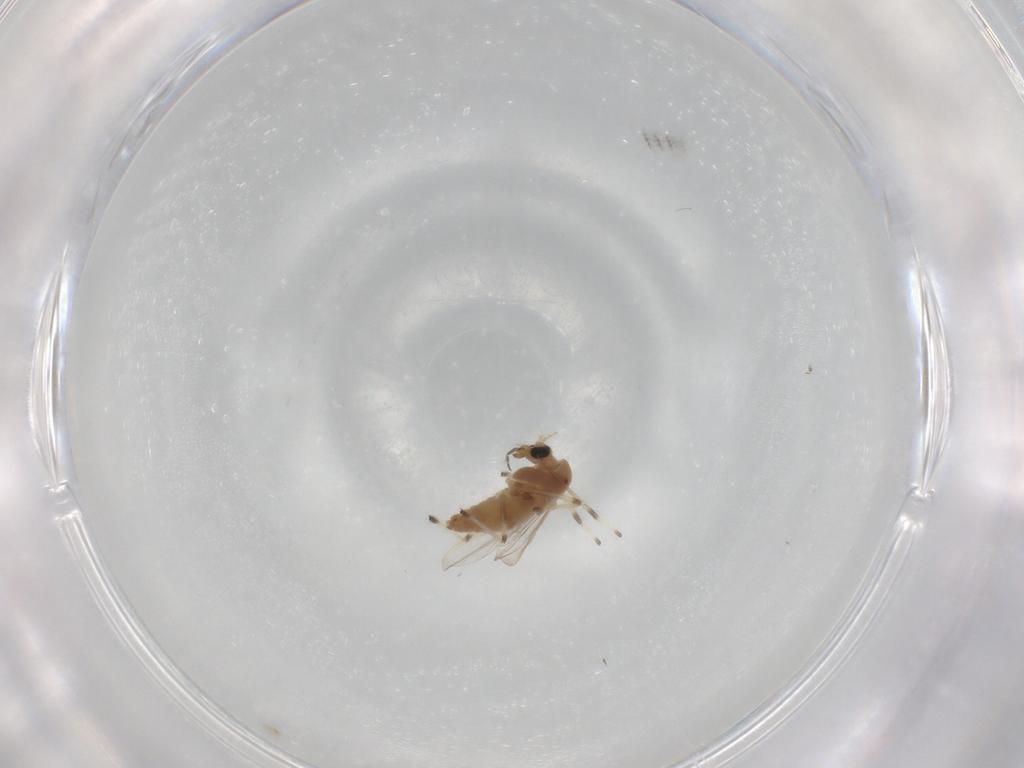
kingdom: Animalia
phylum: Arthropoda
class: Insecta
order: Diptera
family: Chironomidae
